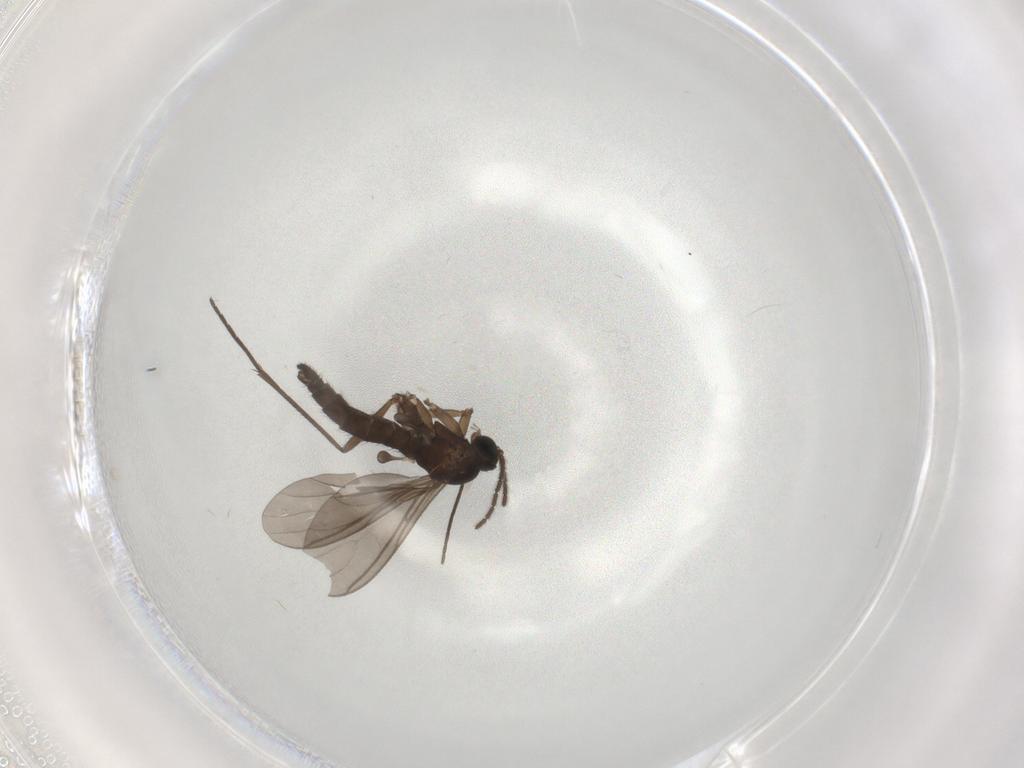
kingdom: Animalia
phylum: Arthropoda
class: Insecta
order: Diptera
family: Sciaridae
